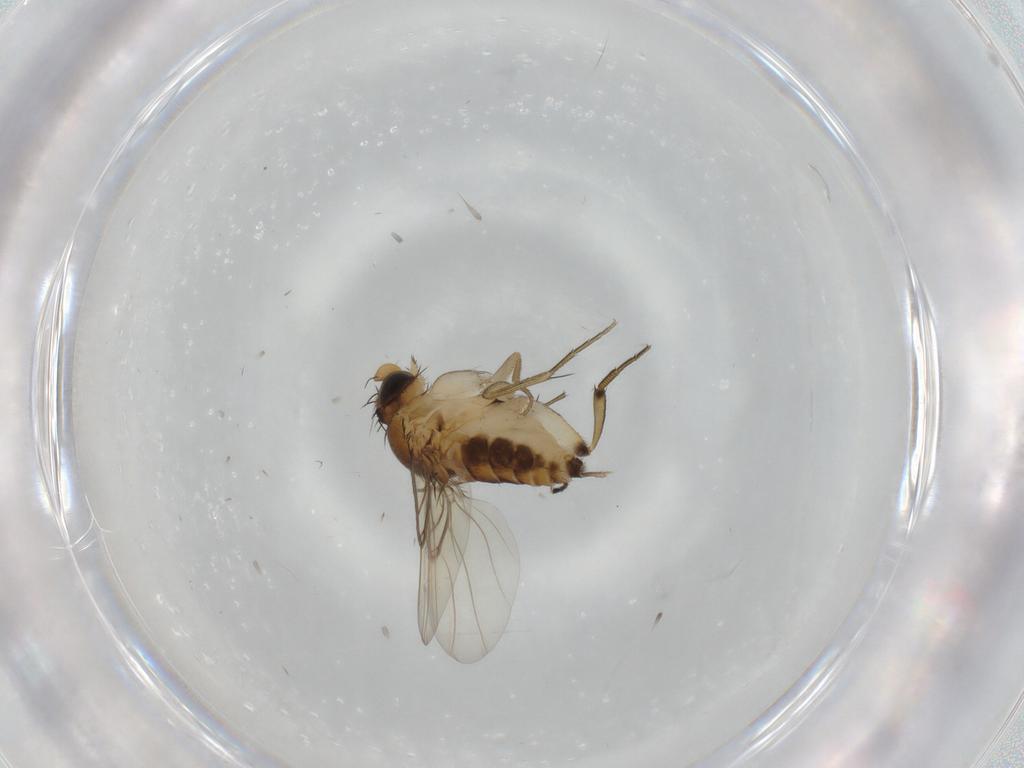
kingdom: Animalia
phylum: Arthropoda
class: Insecta
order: Diptera
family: Milichiidae
